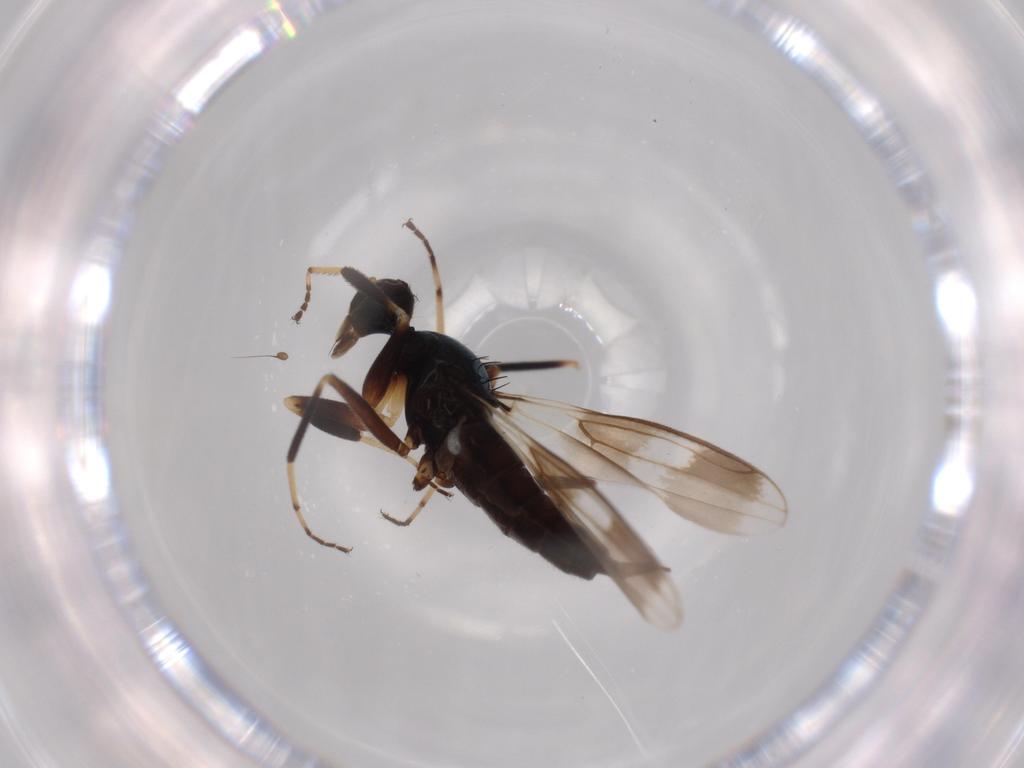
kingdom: Animalia
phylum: Arthropoda
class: Insecta
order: Diptera
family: Hybotidae
